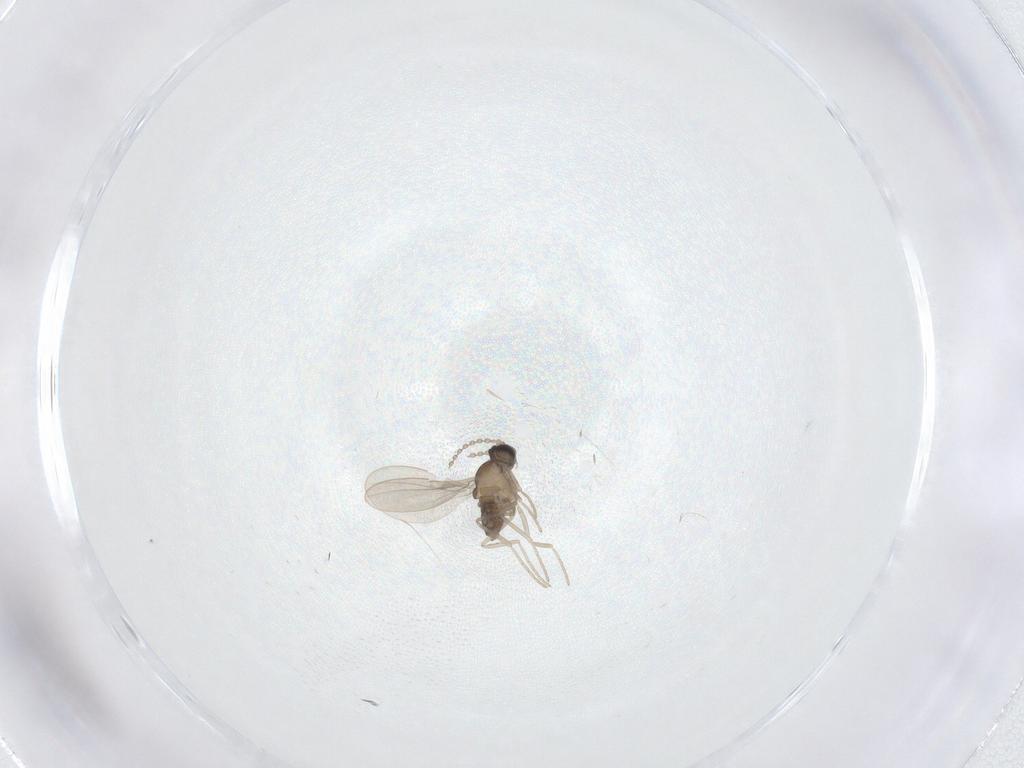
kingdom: Animalia
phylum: Arthropoda
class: Insecta
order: Diptera
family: Cecidomyiidae
